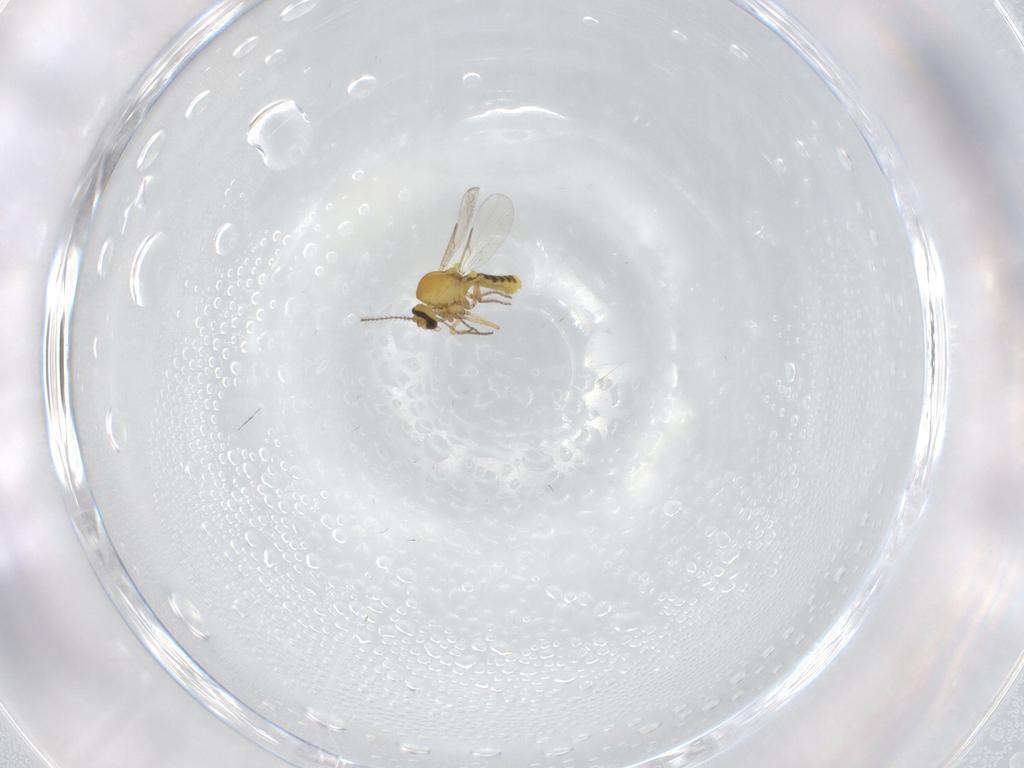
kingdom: Animalia
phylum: Arthropoda
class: Insecta
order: Diptera
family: Ceratopogonidae
